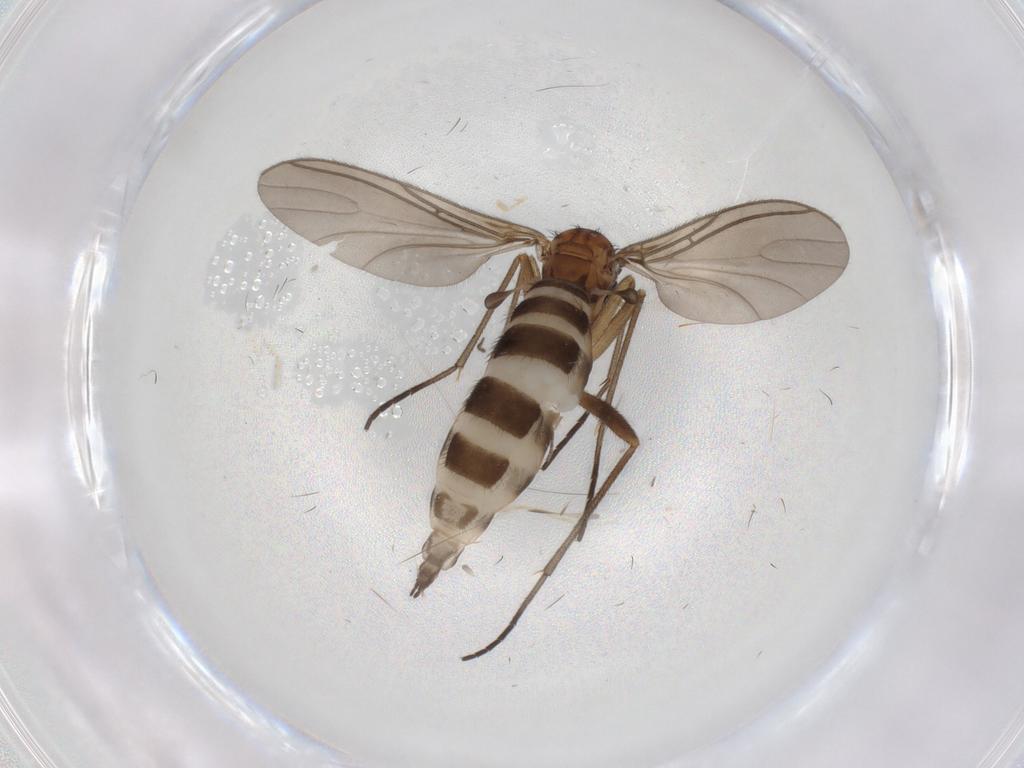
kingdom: Animalia
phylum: Arthropoda
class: Insecta
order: Diptera
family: Sciaridae
